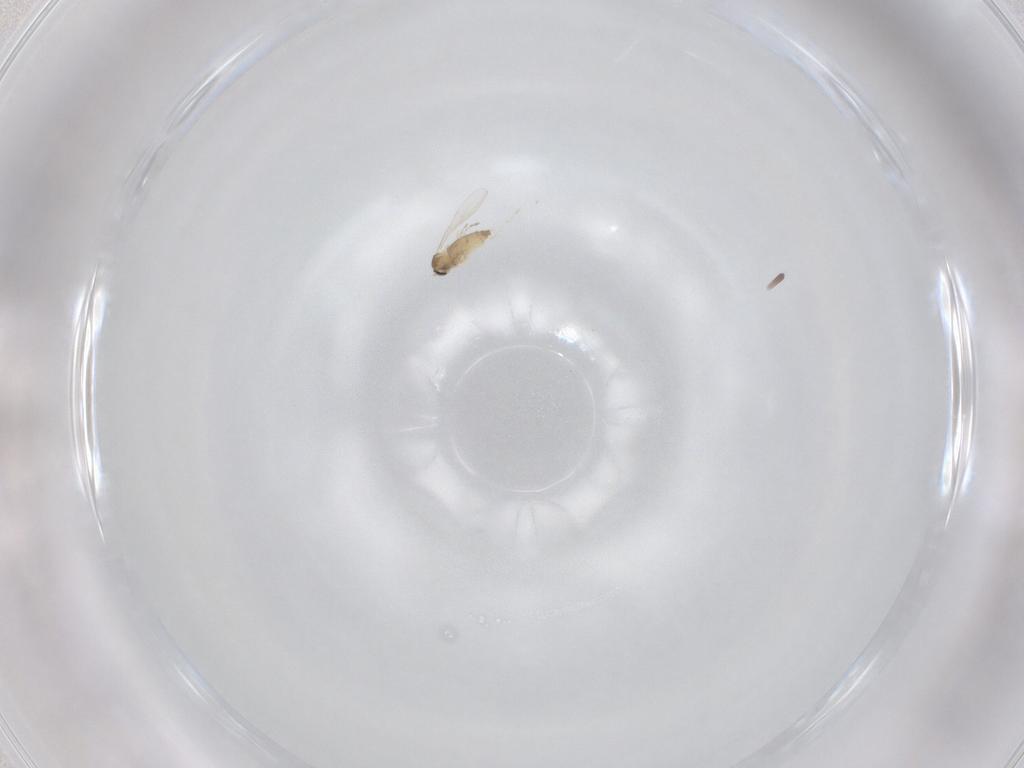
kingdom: Animalia
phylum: Arthropoda
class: Insecta
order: Diptera
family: Cecidomyiidae
